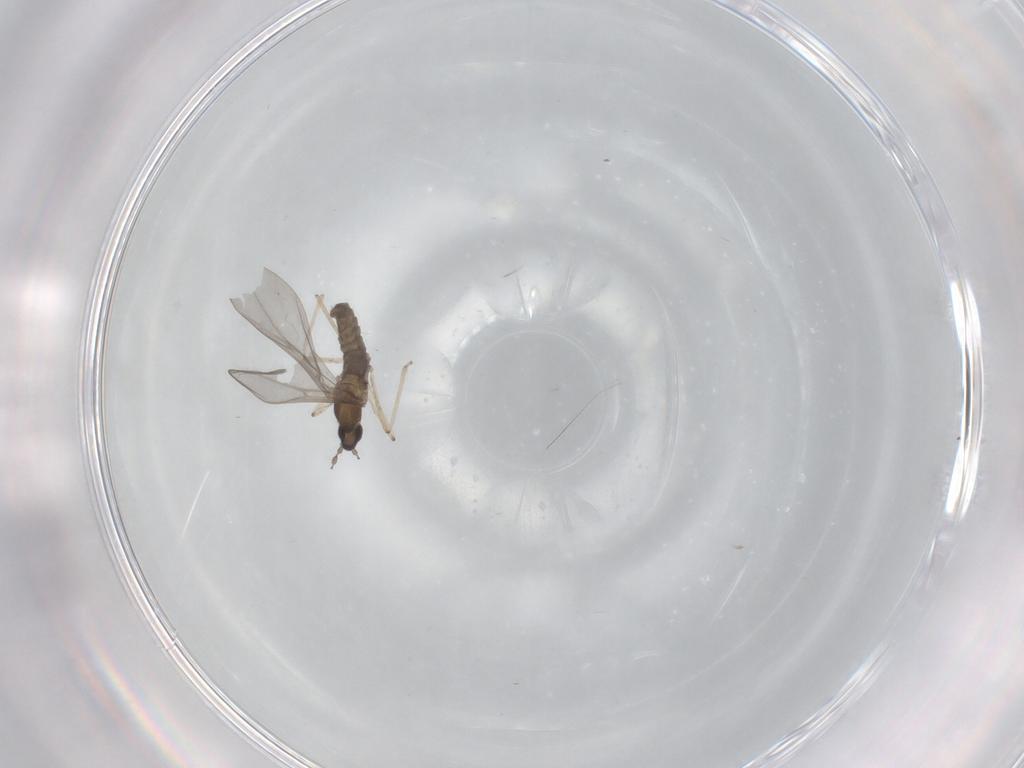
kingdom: Animalia
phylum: Arthropoda
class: Insecta
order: Diptera
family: Cecidomyiidae
